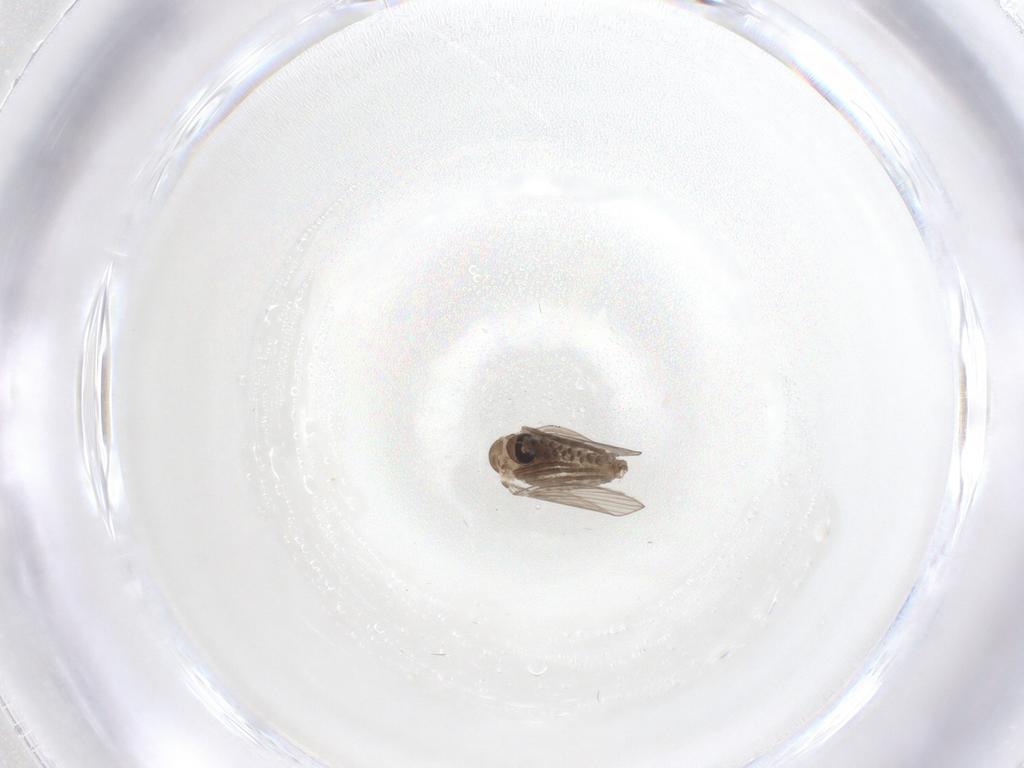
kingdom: Animalia
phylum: Arthropoda
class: Insecta
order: Diptera
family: Psychodidae
